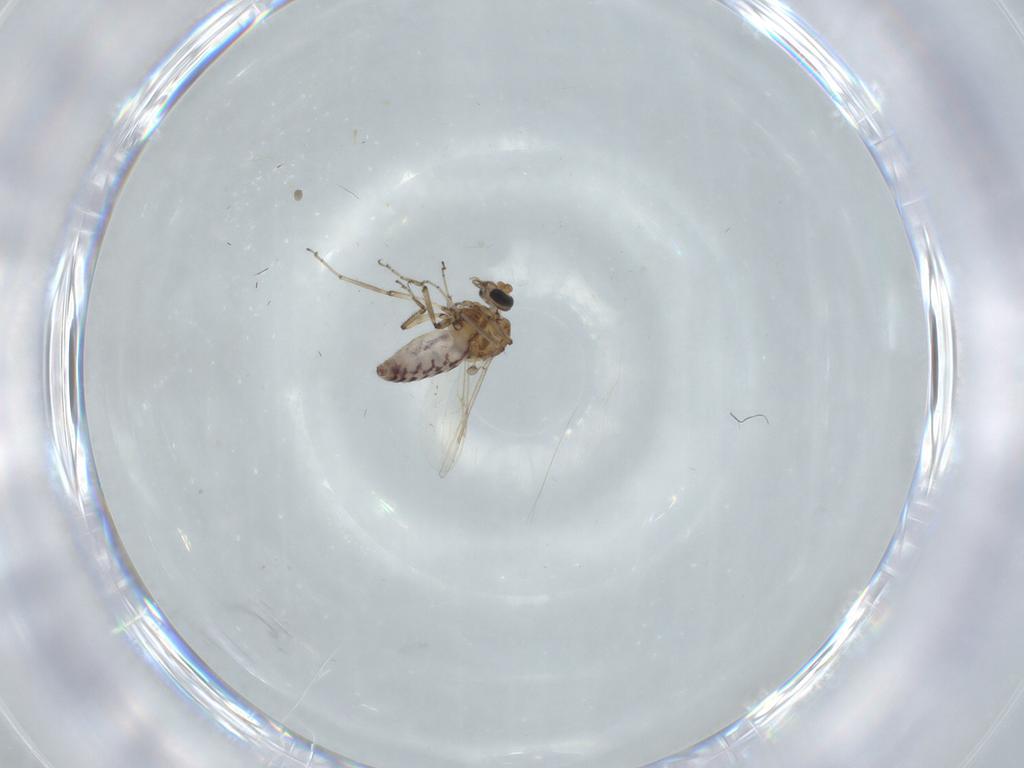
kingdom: Animalia
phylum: Arthropoda
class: Insecta
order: Diptera
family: Ceratopogonidae
